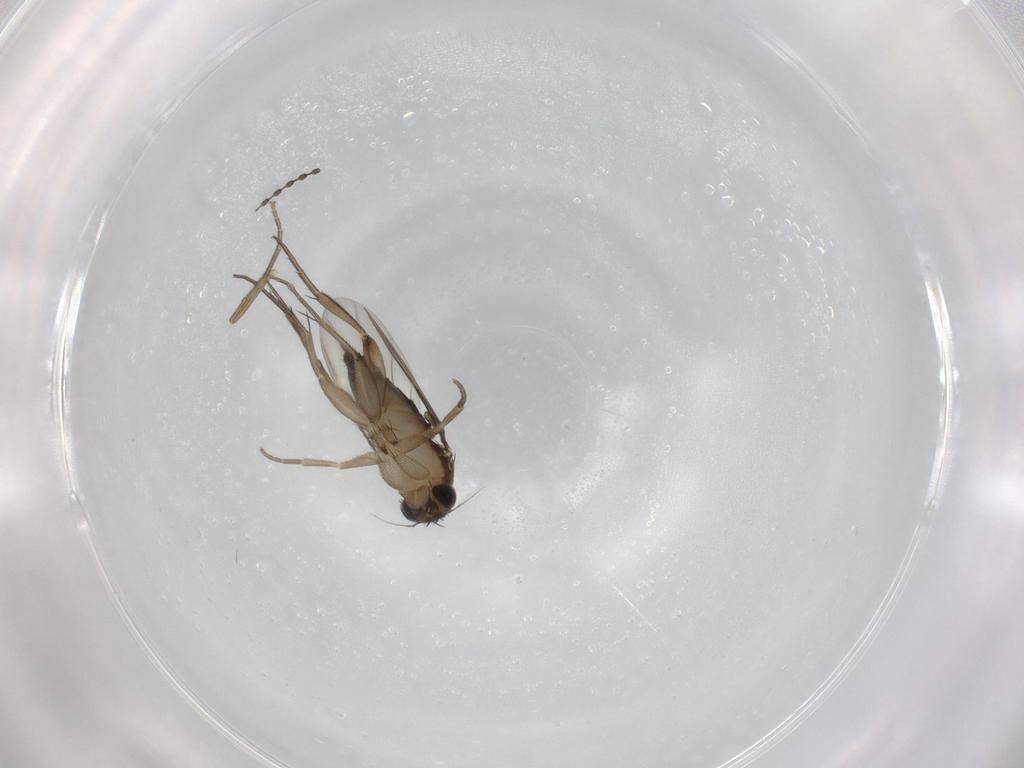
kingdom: Animalia
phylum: Arthropoda
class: Insecta
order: Diptera
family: Phoridae
